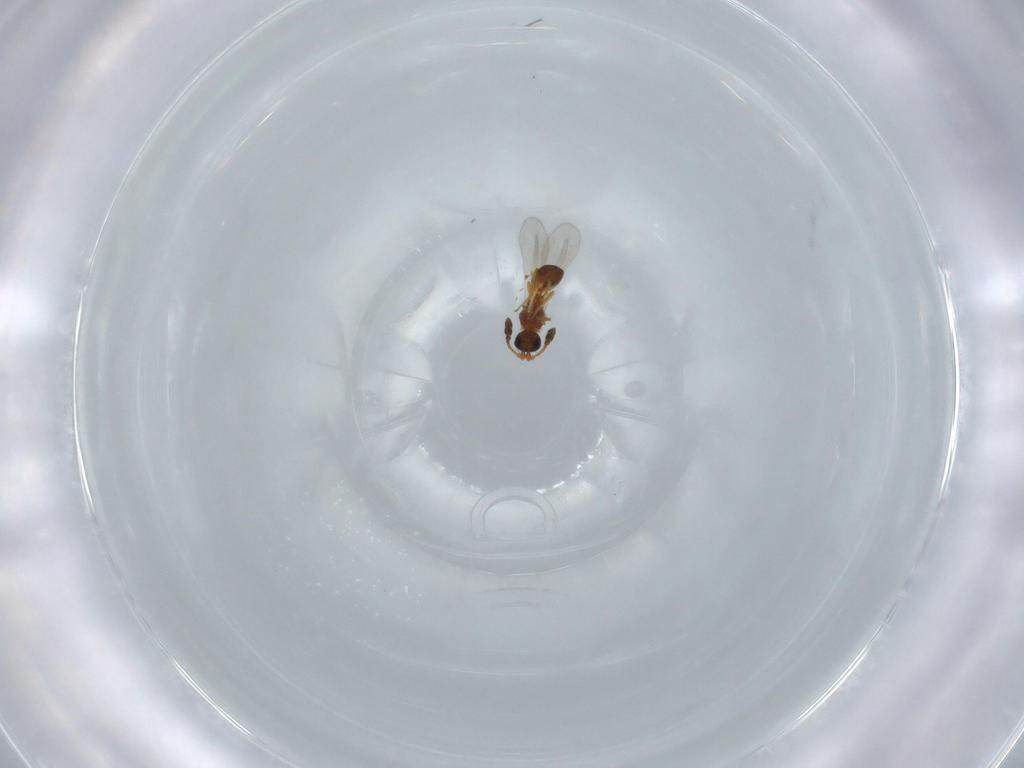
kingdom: Animalia
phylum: Arthropoda
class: Insecta
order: Hymenoptera
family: Diapriidae
